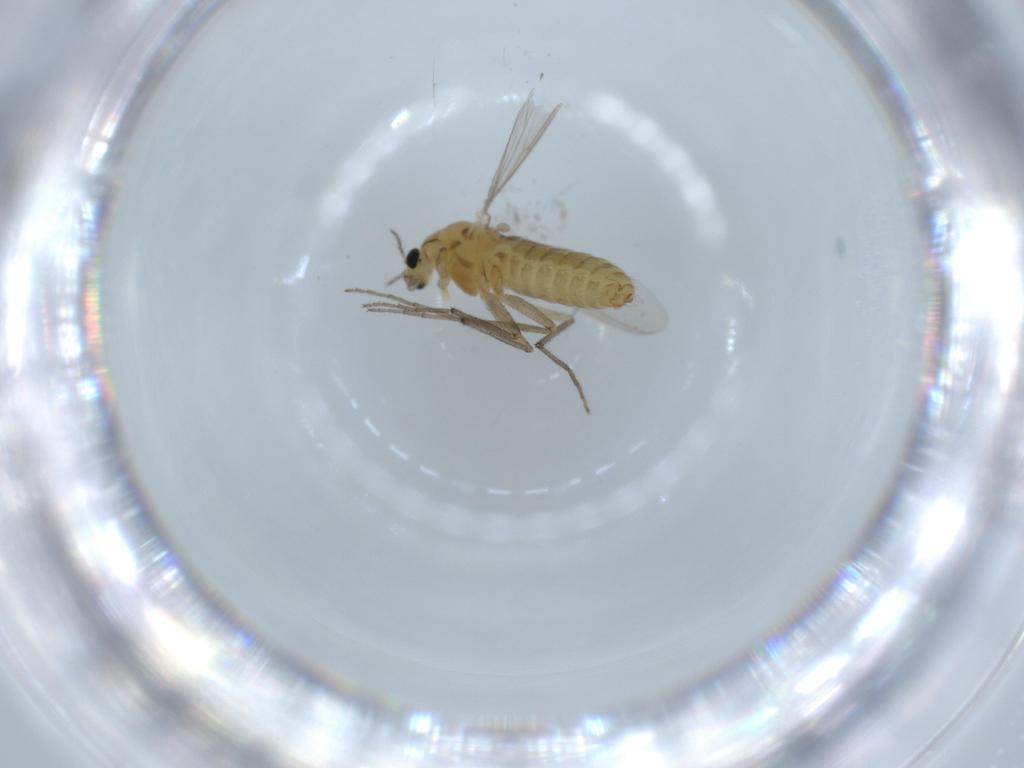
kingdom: Animalia
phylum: Arthropoda
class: Insecta
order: Diptera
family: Chironomidae
